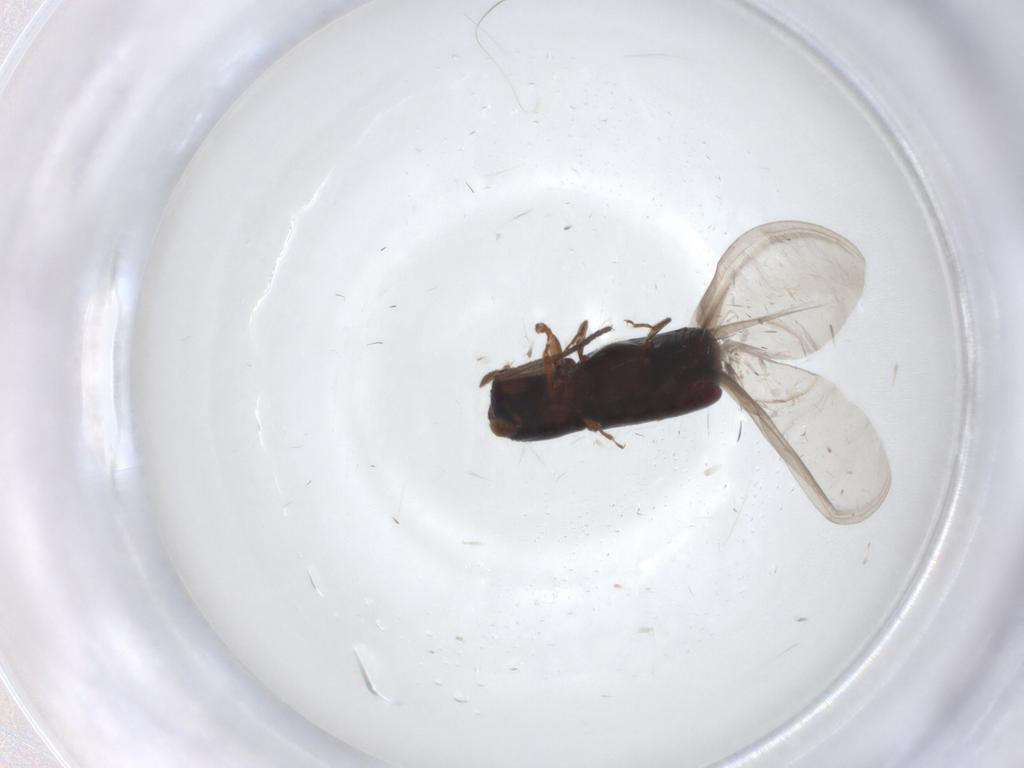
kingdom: Animalia
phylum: Arthropoda
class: Insecta
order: Coleoptera
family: Curculionidae
